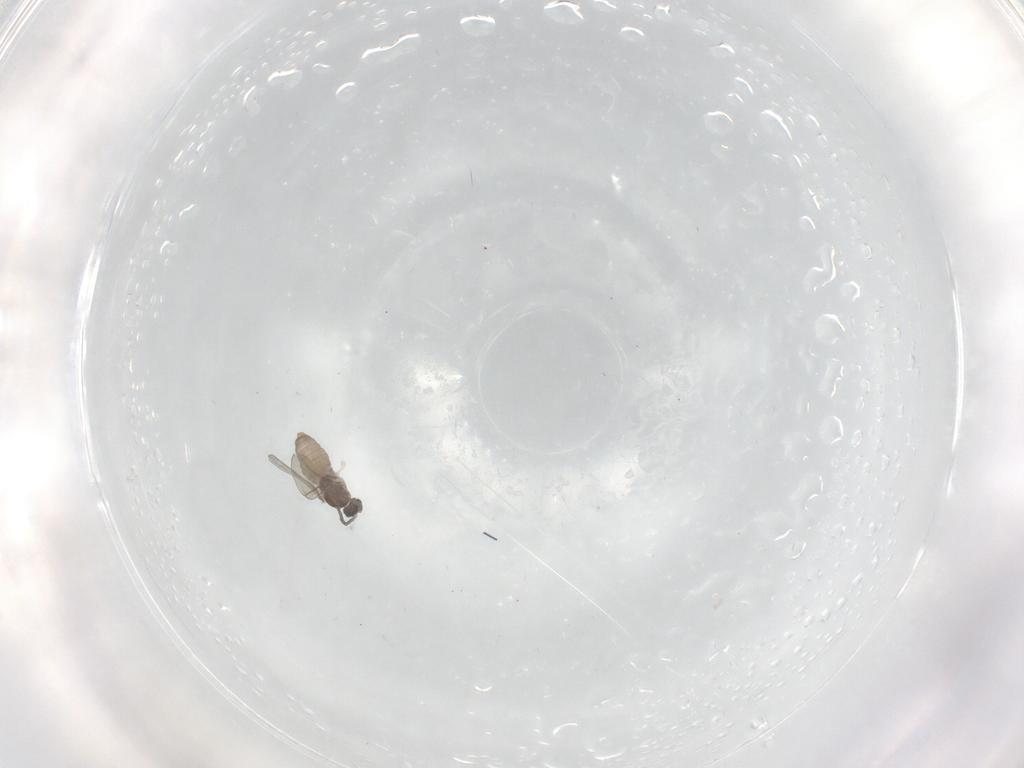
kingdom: Animalia
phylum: Arthropoda
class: Insecta
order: Diptera
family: Cecidomyiidae
